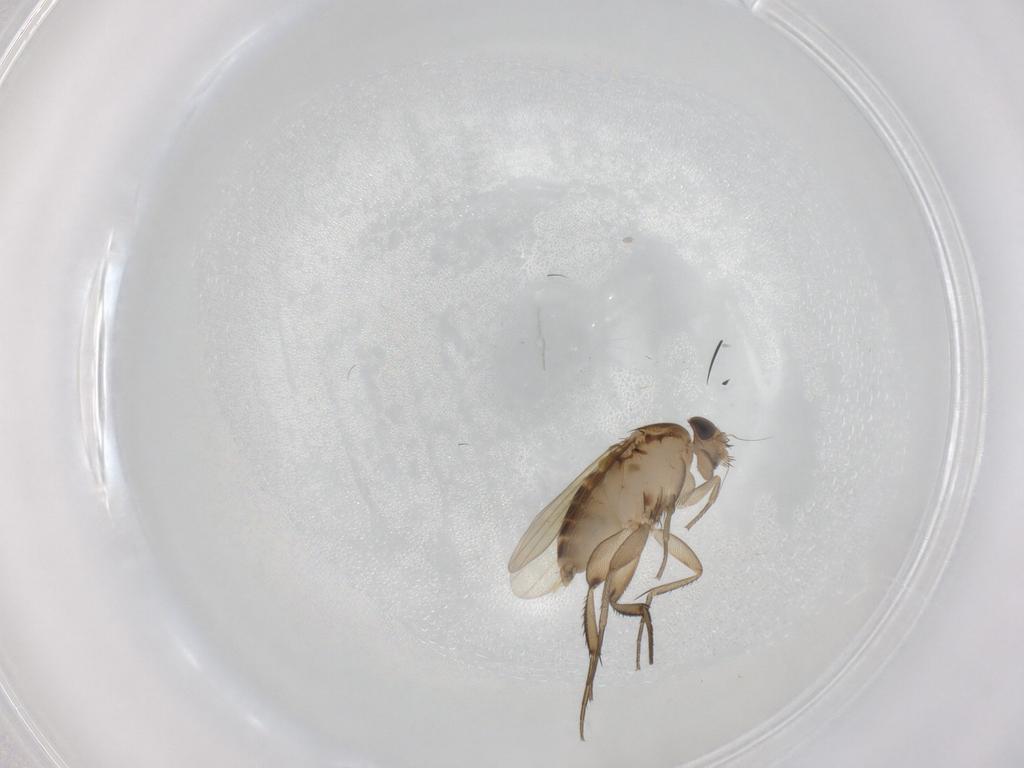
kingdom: Animalia
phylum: Arthropoda
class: Insecta
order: Diptera
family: Phoridae
